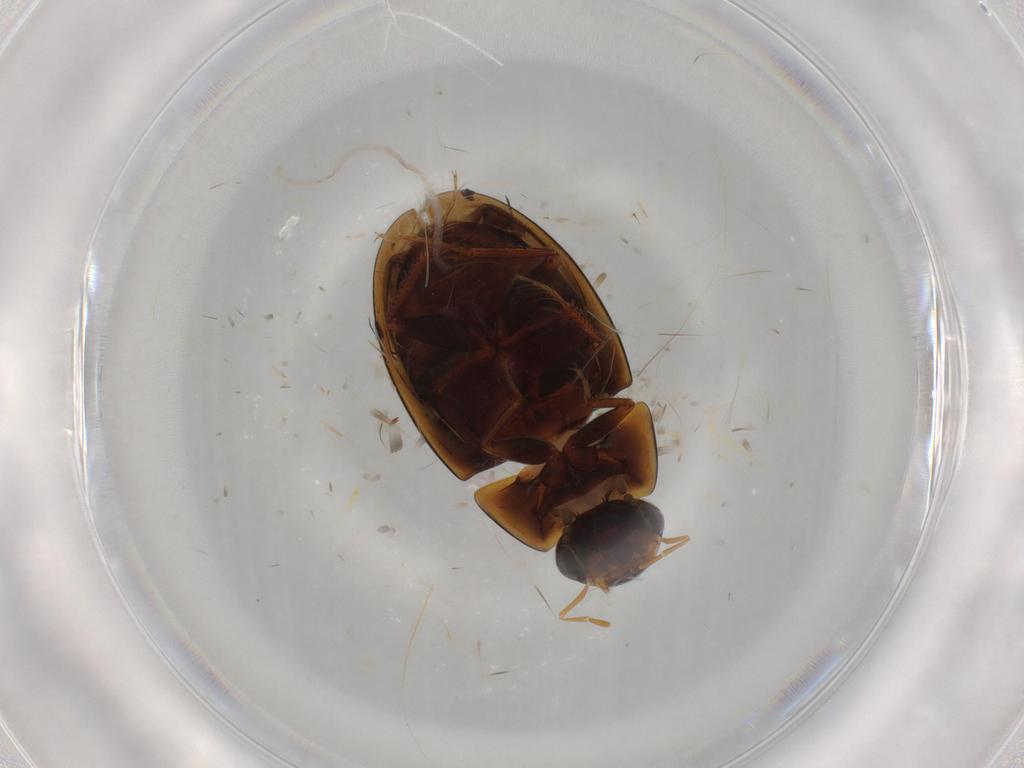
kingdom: Animalia
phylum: Arthropoda
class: Insecta
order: Coleoptera
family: Hydrophilidae
